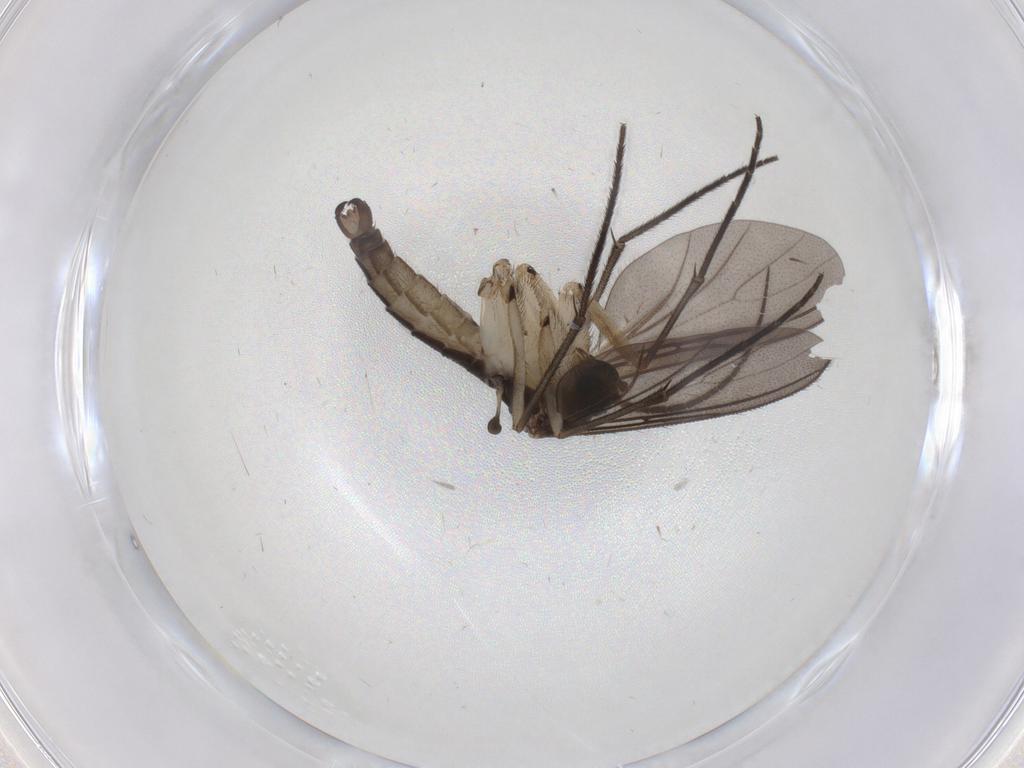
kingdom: Animalia
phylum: Arthropoda
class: Insecta
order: Diptera
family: Sciaridae
